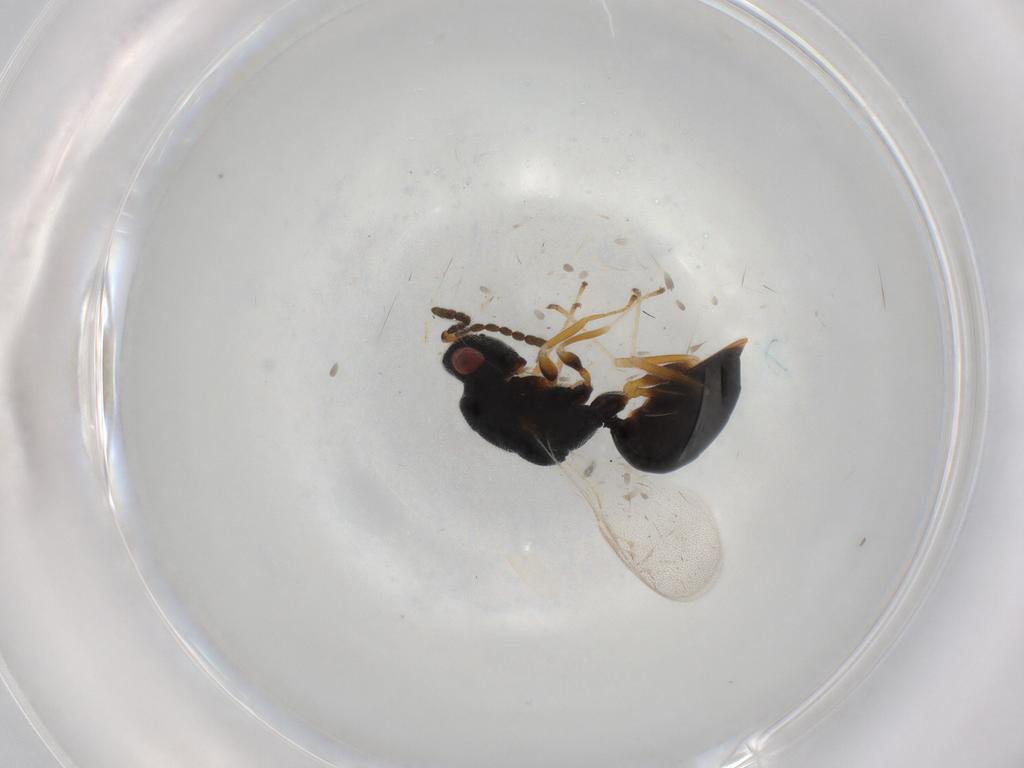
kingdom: Animalia
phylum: Arthropoda
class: Insecta
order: Hymenoptera
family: Eurytomidae
